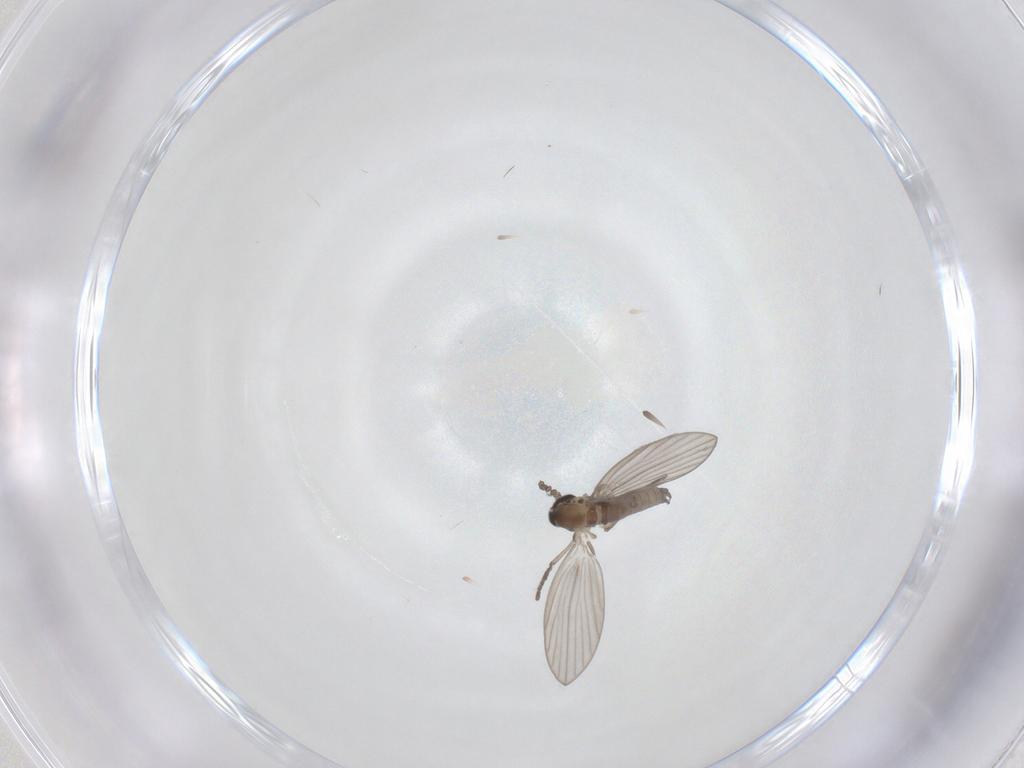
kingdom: Animalia
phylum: Arthropoda
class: Insecta
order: Diptera
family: Psychodidae
